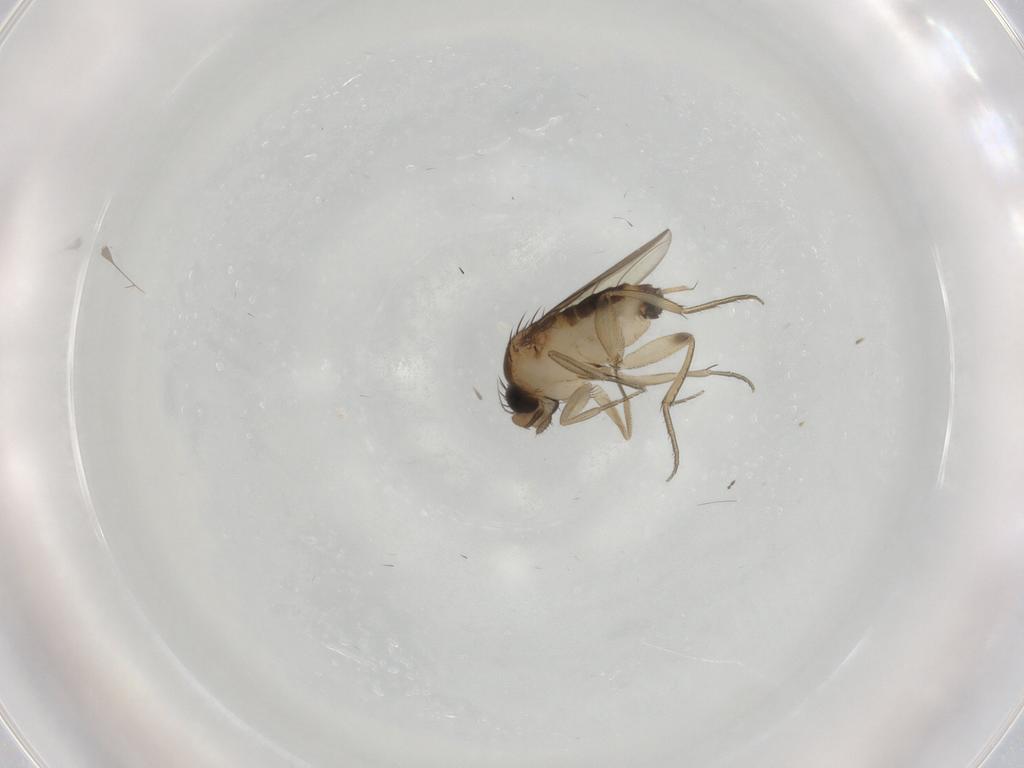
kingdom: Animalia
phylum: Arthropoda
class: Insecta
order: Diptera
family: Phoridae
